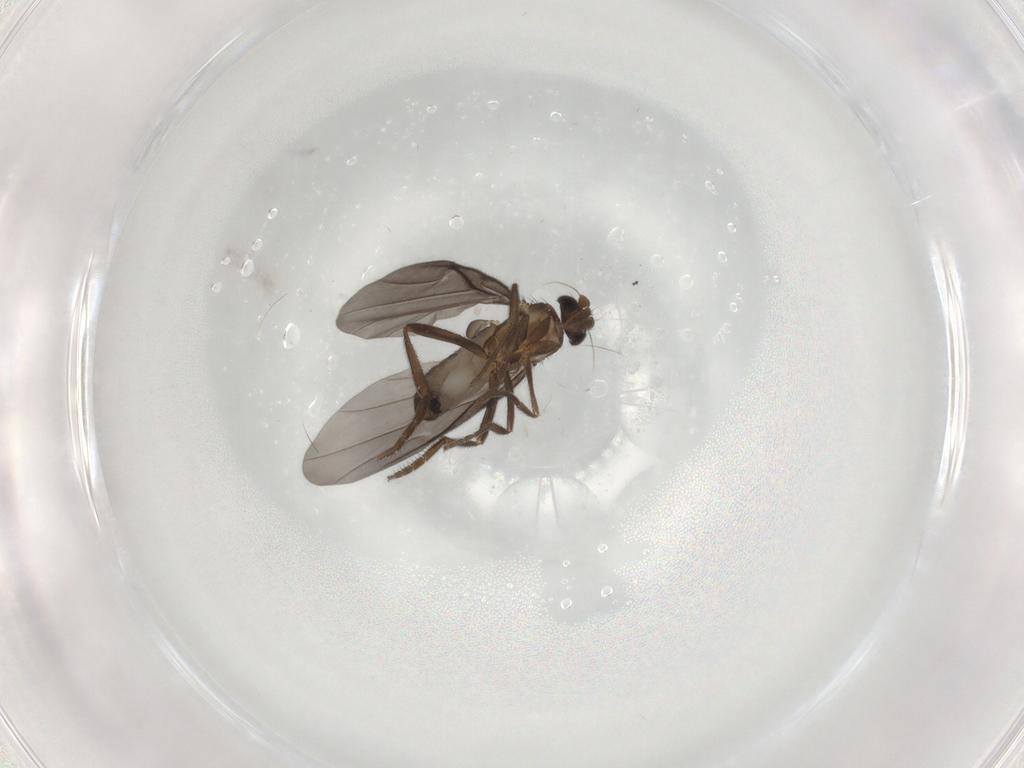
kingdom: Animalia
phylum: Arthropoda
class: Insecta
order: Diptera
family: Phoridae
